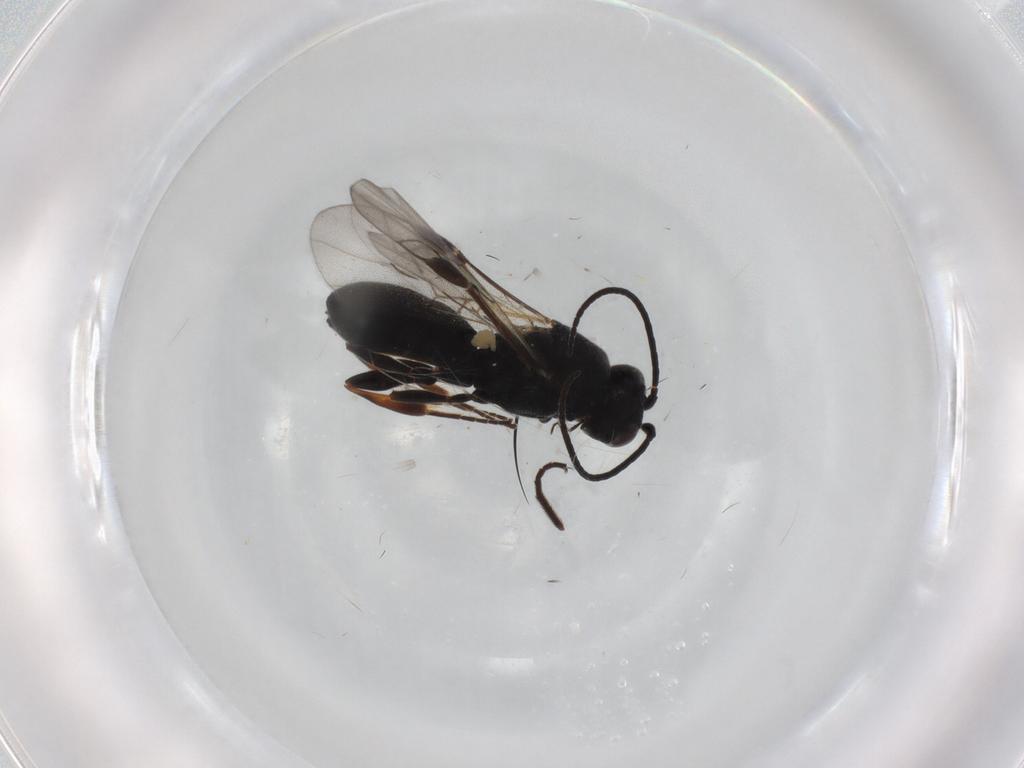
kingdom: Animalia
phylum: Arthropoda
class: Insecta
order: Hymenoptera
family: Braconidae
